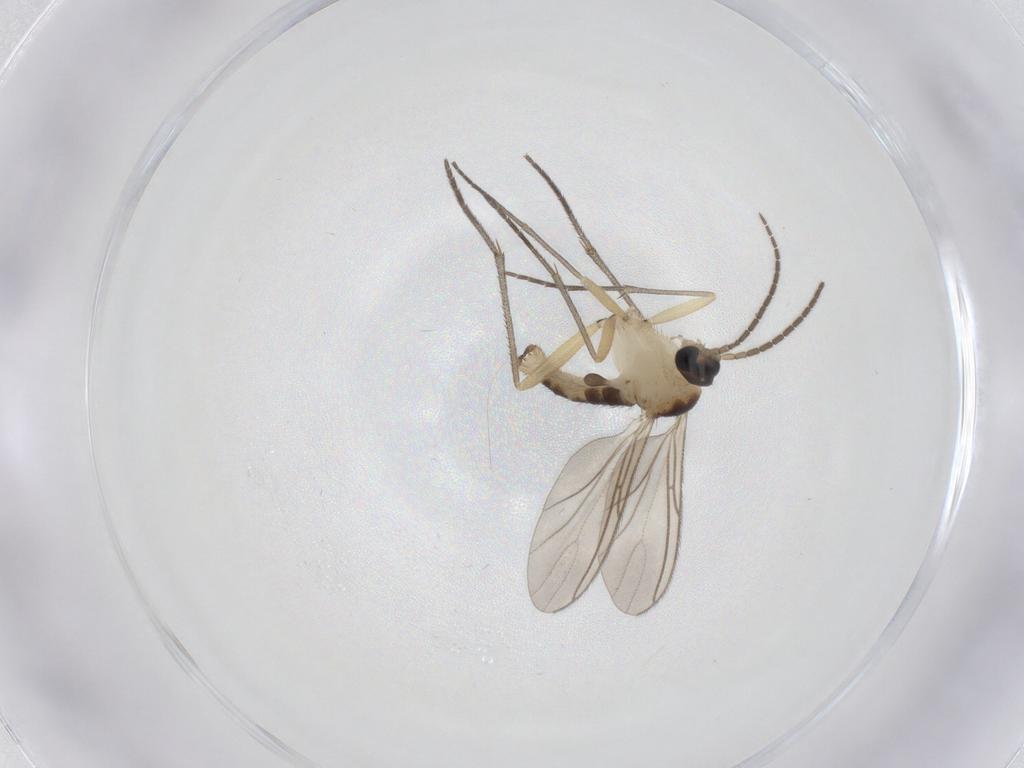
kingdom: Animalia
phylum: Arthropoda
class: Insecta
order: Diptera
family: Sciaridae
